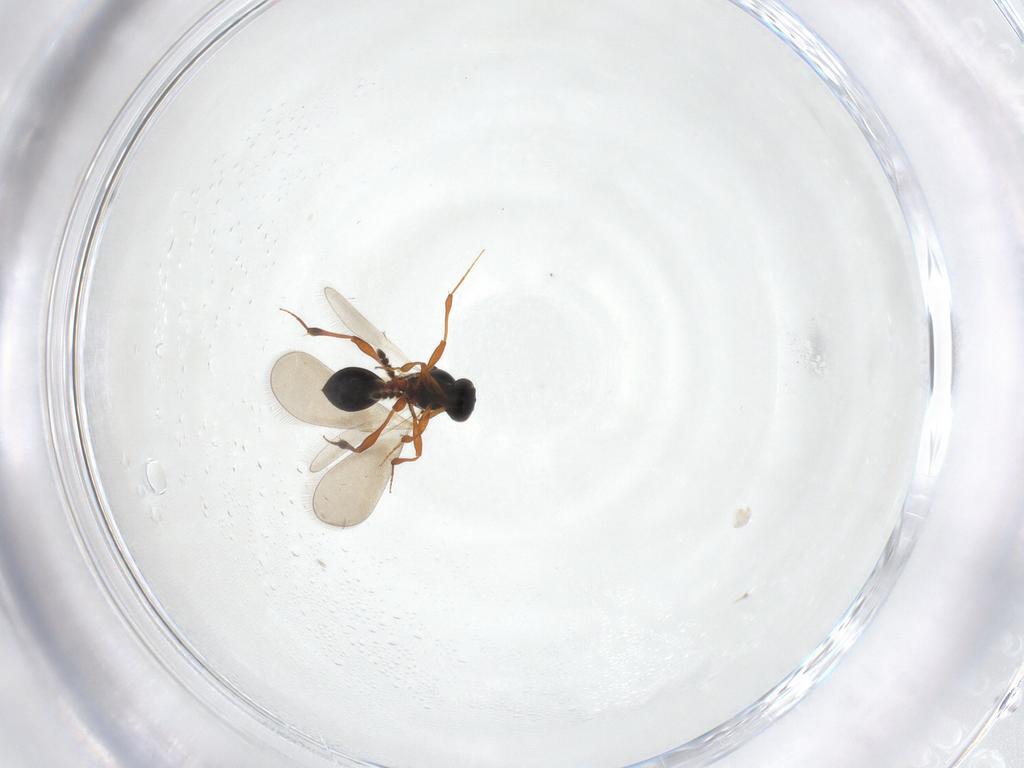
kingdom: Animalia
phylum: Arthropoda
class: Insecta
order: Hymenoptera
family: Platygastridae
